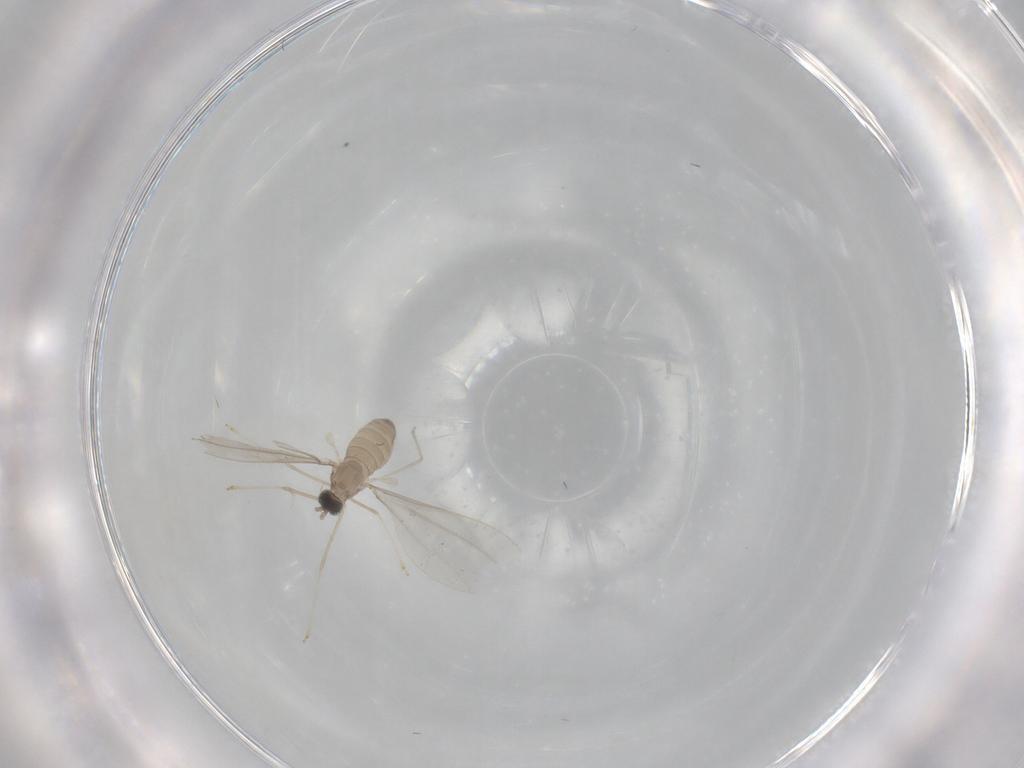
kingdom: Animalia
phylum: Arthropoda
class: Insecta
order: Diptera
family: Dolichopodidae
